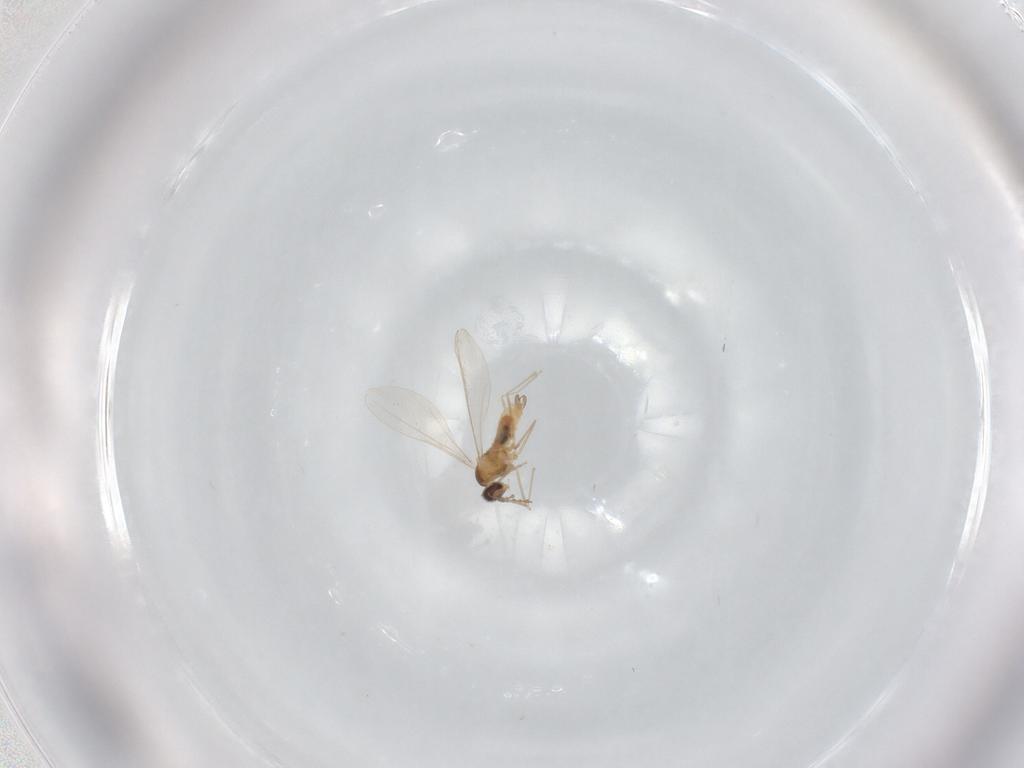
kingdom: Animalia
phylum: Arthropoda
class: Insecta
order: Diptera
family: Cecidomyiidae
